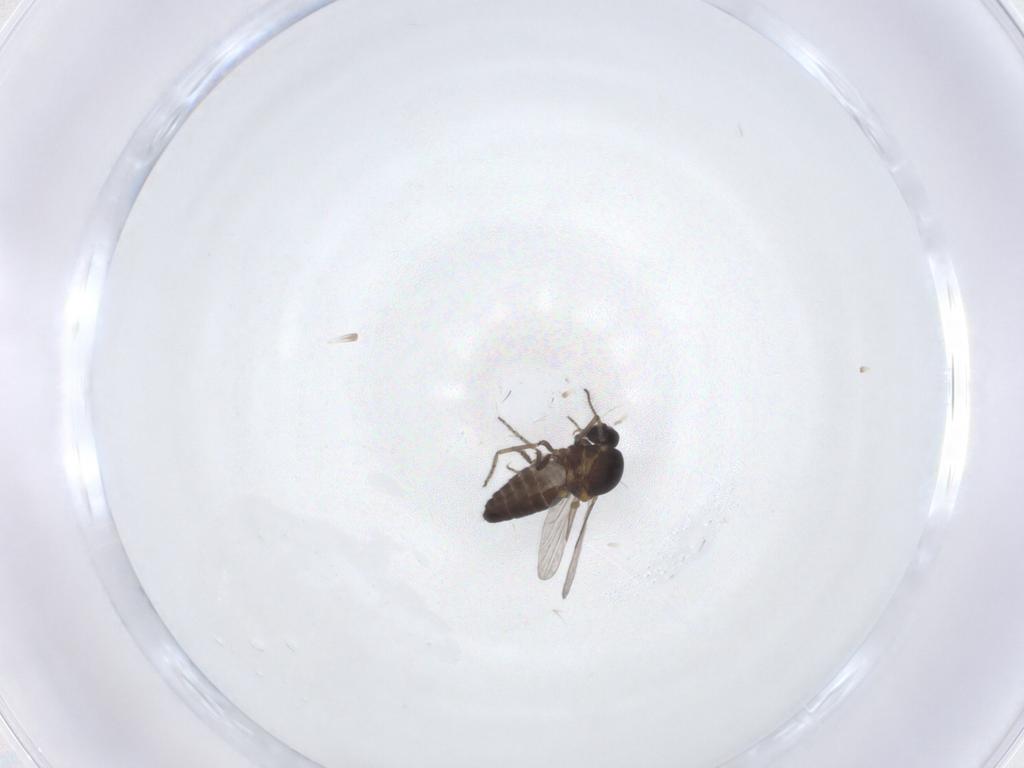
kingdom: Animalia
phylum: Arthropoda
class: Insecta
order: Diptera
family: Ceratopogonidae
